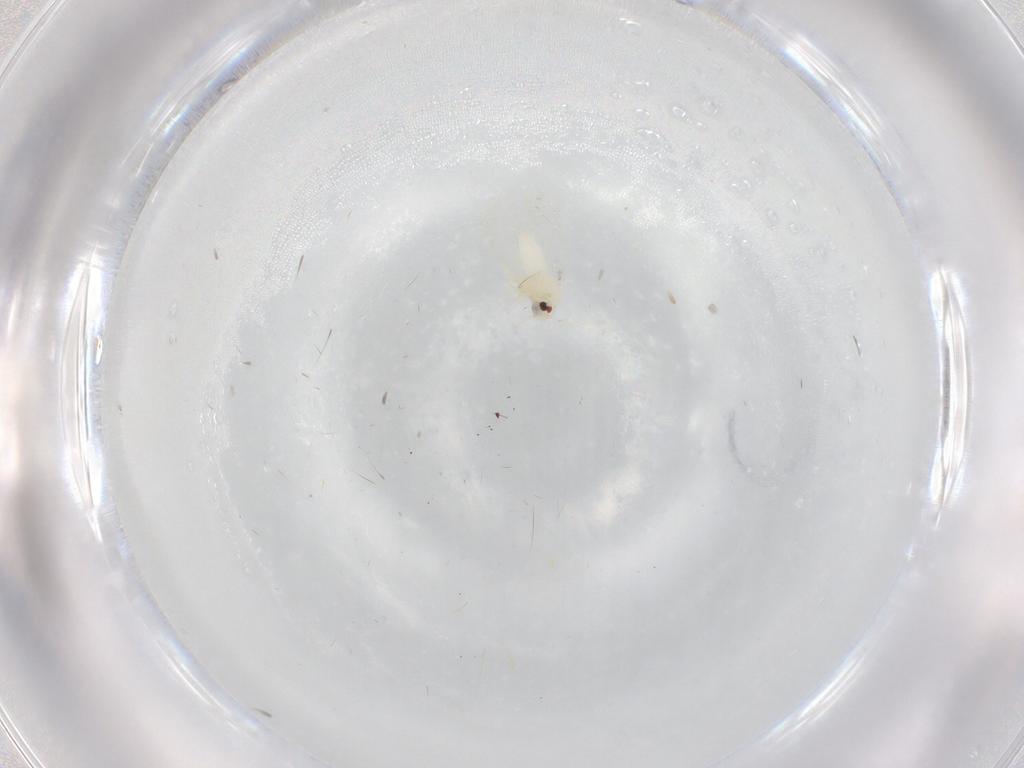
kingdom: Animalia
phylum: Arthropoda
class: Insecta
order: Diptera
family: Cecidomyiidae
